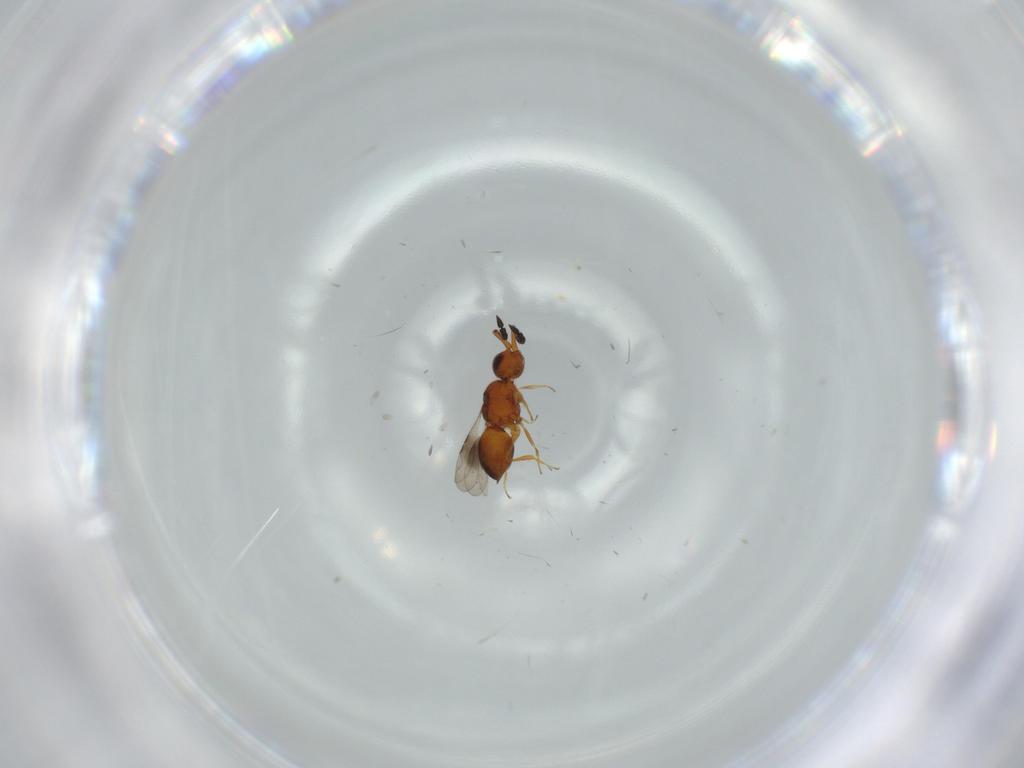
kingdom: Animalia
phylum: Arthropoda
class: Insecta
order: Hymenoptera
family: Ceraphronidae
